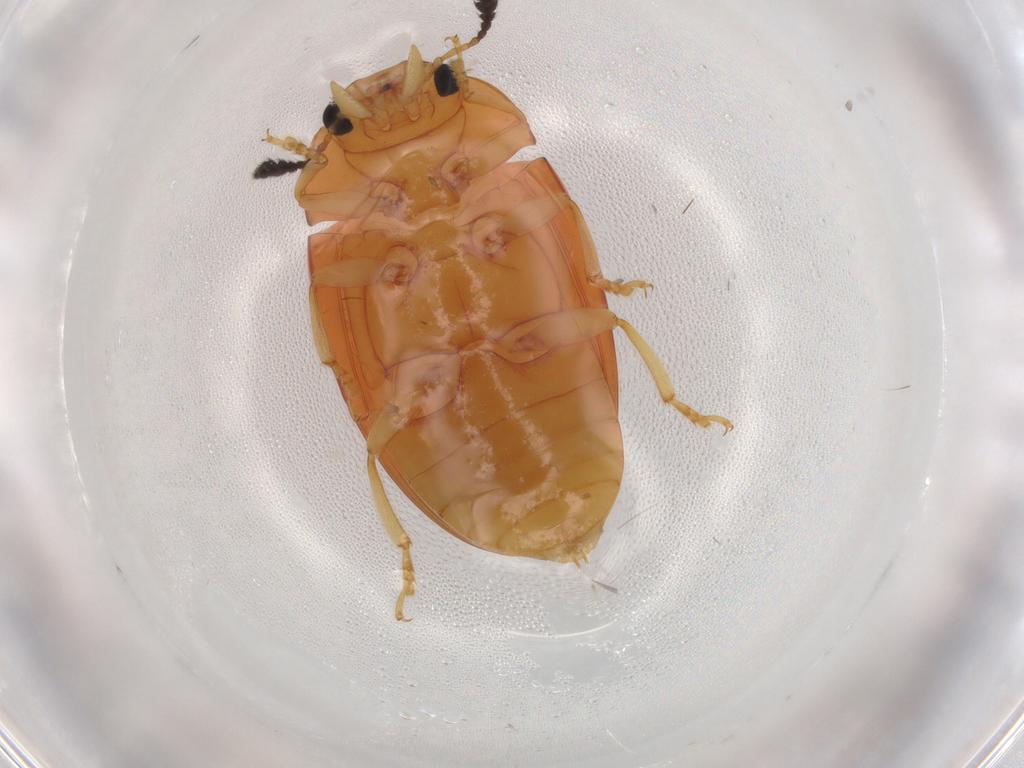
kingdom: Animalia
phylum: Arthropoda
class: Insecta
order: Coleoptera
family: Erotylidae
